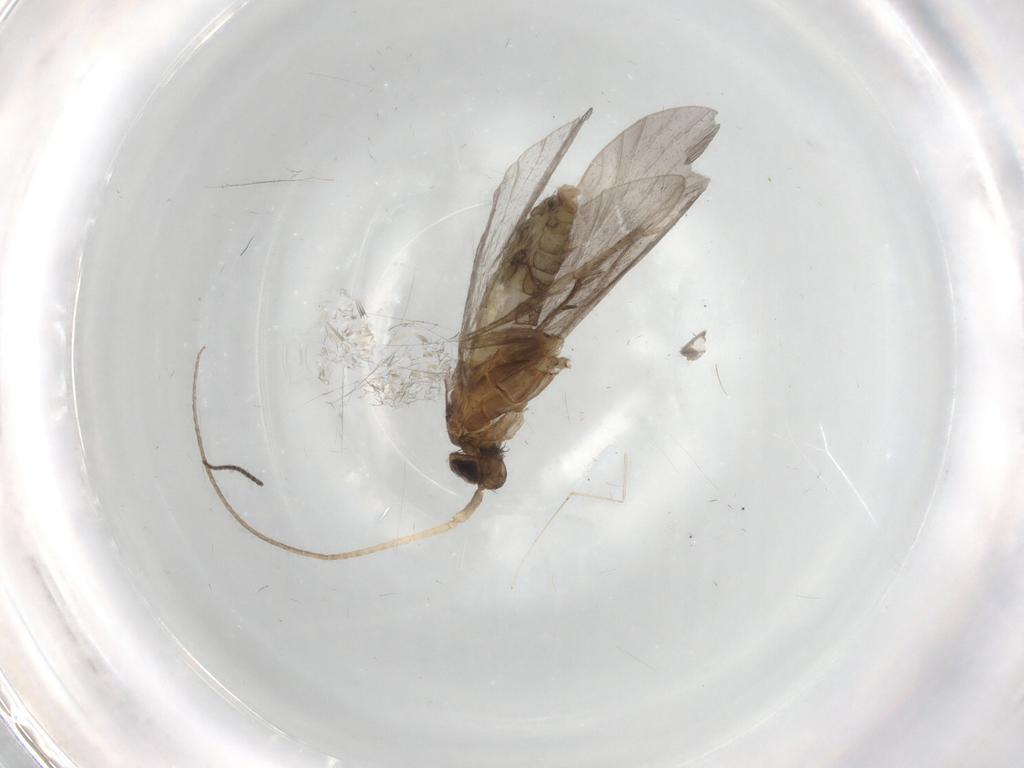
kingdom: Animalia
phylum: Arthropoda
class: Insecta
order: Trichoptera
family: Helicopsychidae
